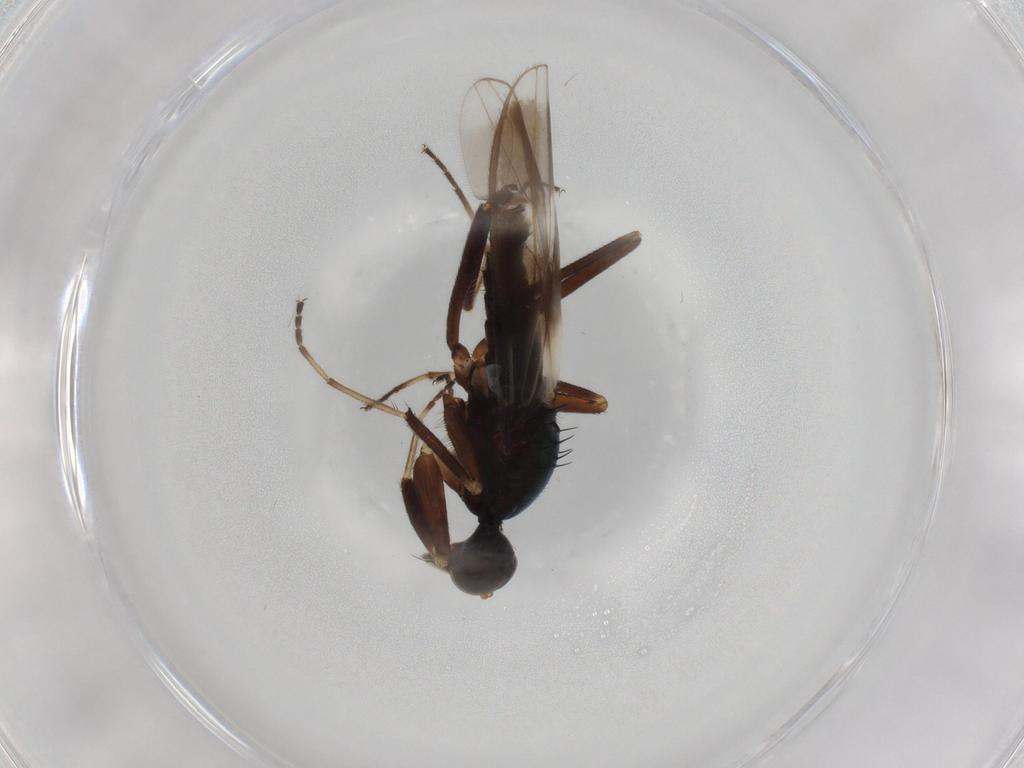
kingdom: Animalia
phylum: Arthropoda
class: Insecta
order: Diptera
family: Hybotidae
